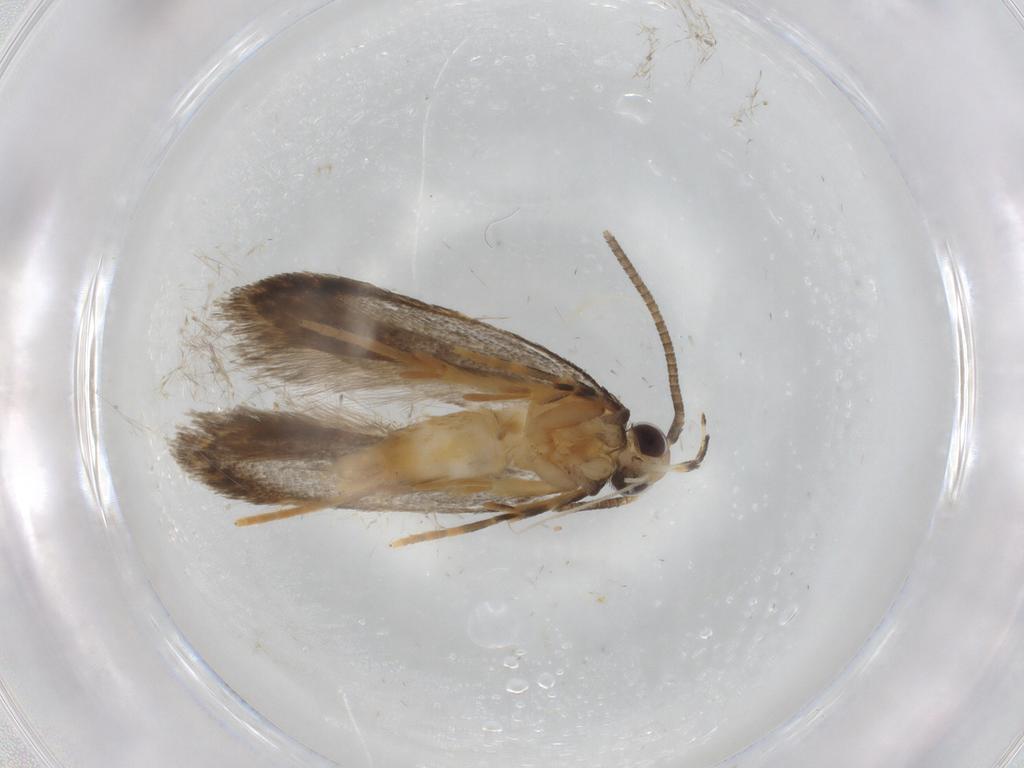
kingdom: Animalia
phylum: Arthropoda
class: Insecta
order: Lepidoptera
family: Autostichidae
